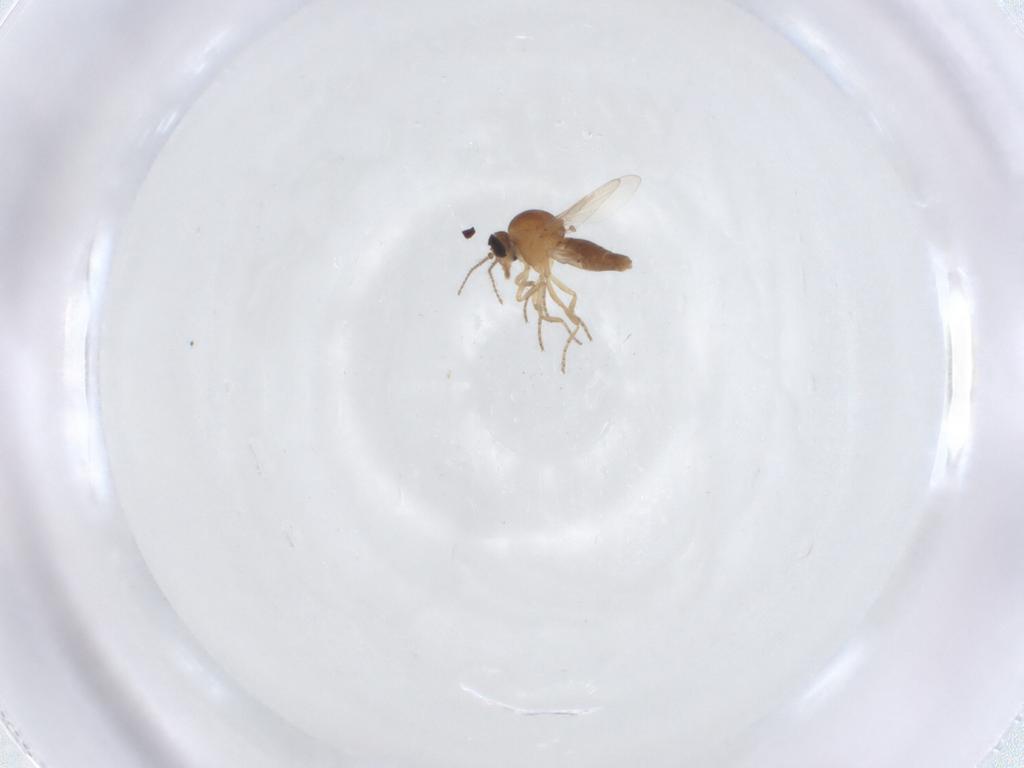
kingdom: Animalia
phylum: Arthropoda
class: Insecta
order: Diptera
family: Ceratopogonidae
